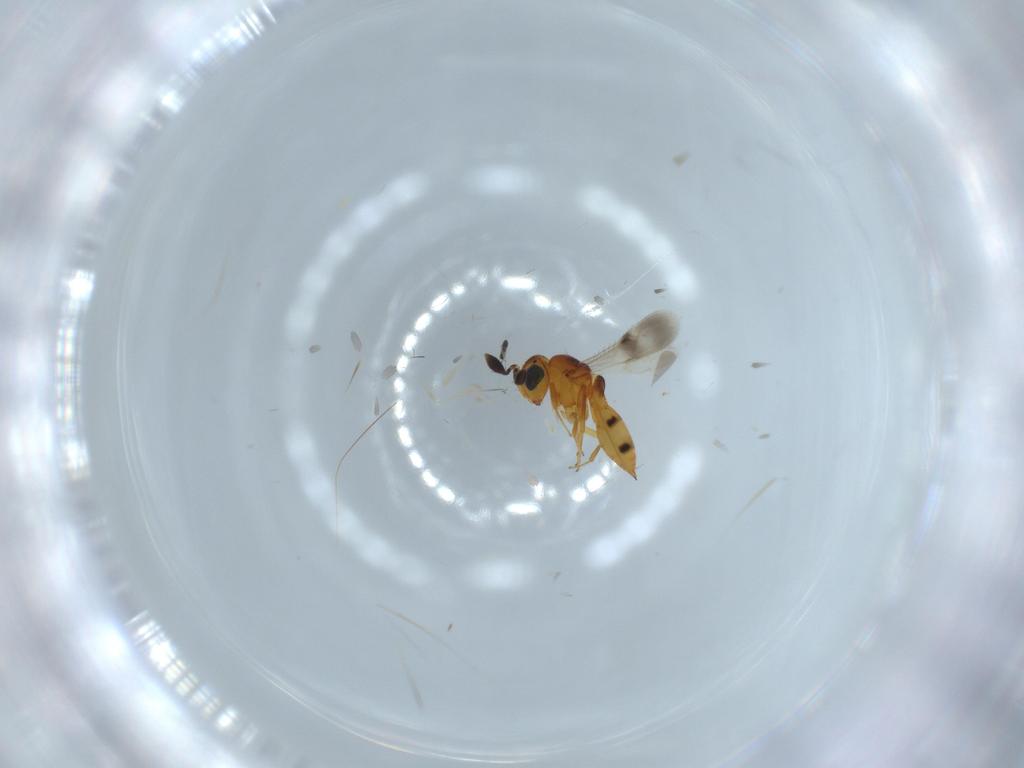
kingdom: Animalia
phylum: Arthropoda
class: Insecta
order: Hymenoptera
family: Scelionidae
